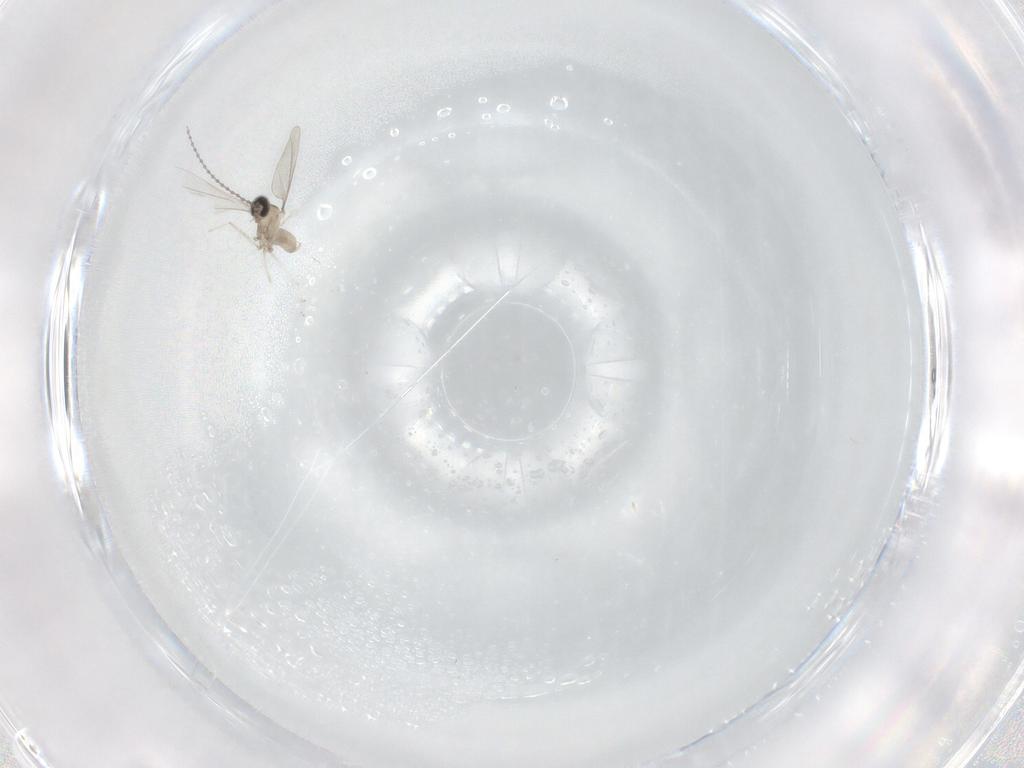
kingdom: Animalia
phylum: Arthropoda
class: Insecta
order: Diptera
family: Cecidomyiidae
